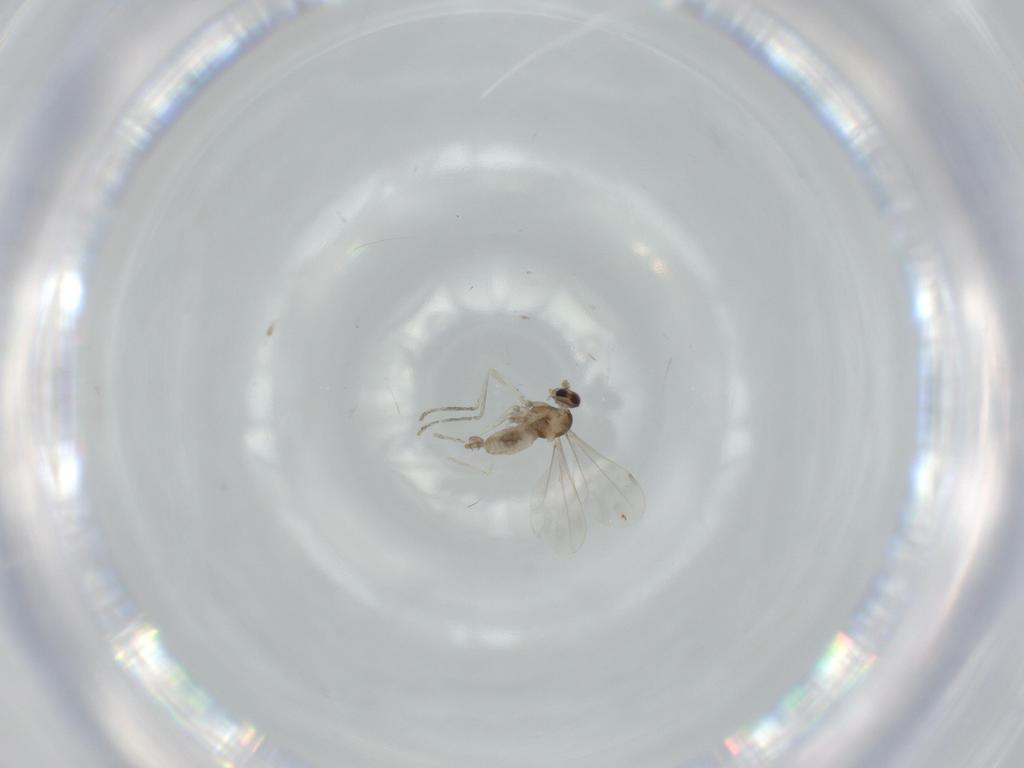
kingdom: Animalia
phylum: Arthropoda
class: Insecta
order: Diptera
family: Cecidomyiidae
